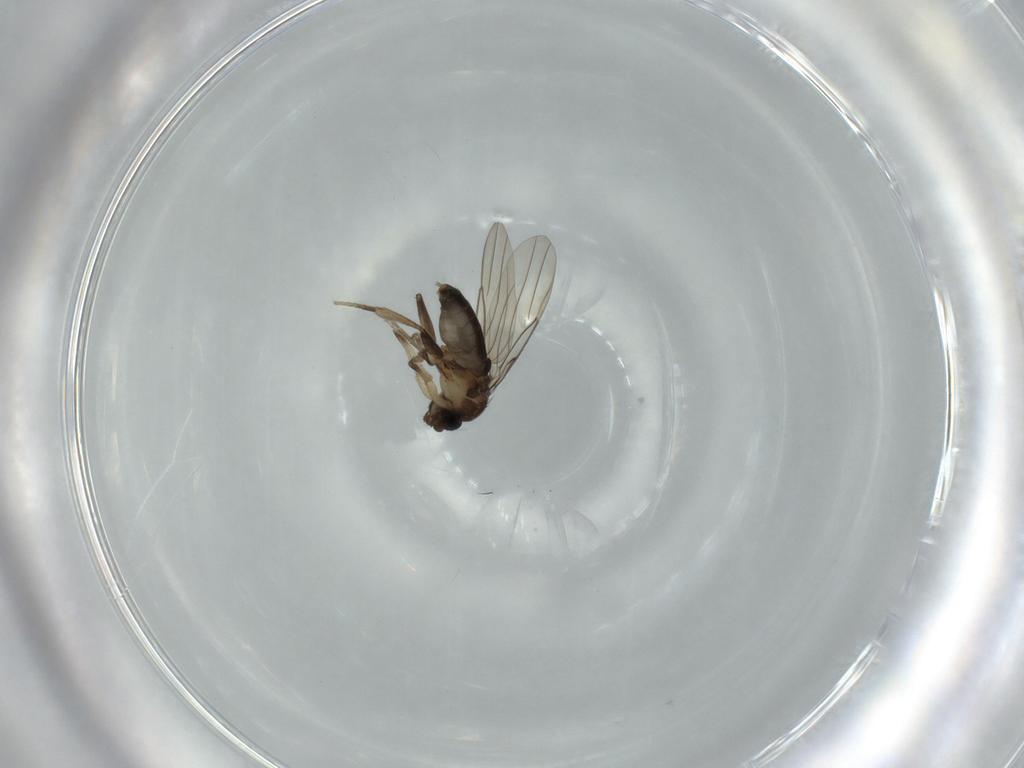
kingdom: Animalia
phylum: Arthropoda
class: Insecta
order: Diptera
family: Phoridae
